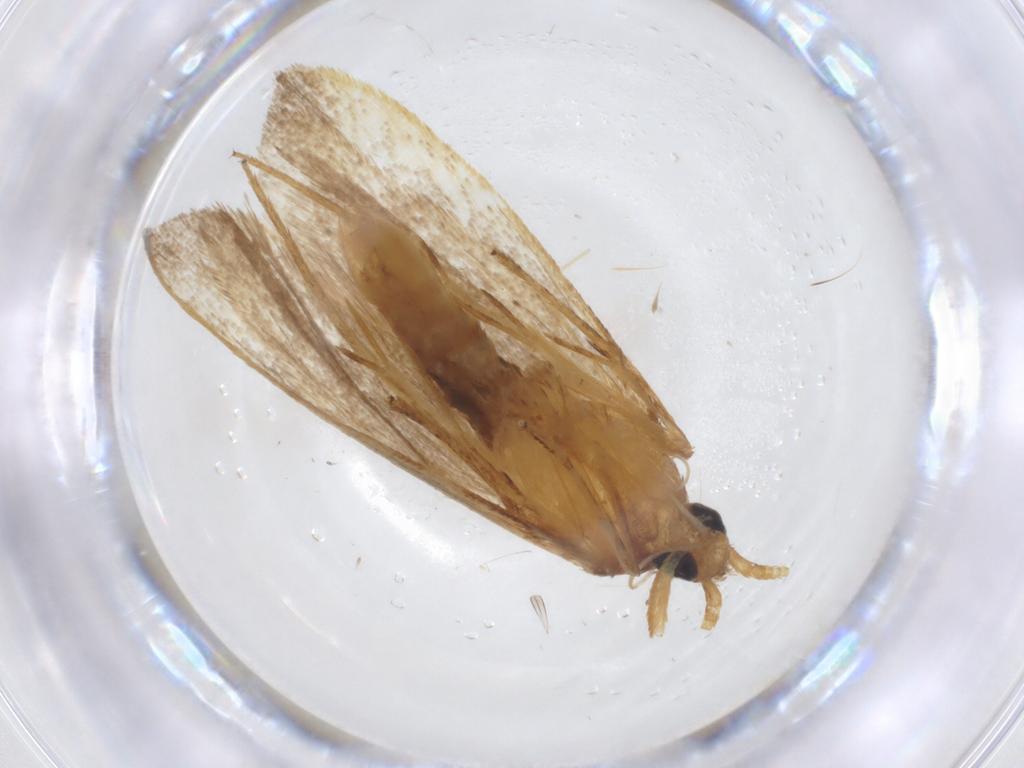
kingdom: Animalia
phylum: Arthropoda
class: Insecta
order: Lepidoptera
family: Lecithoceridae
